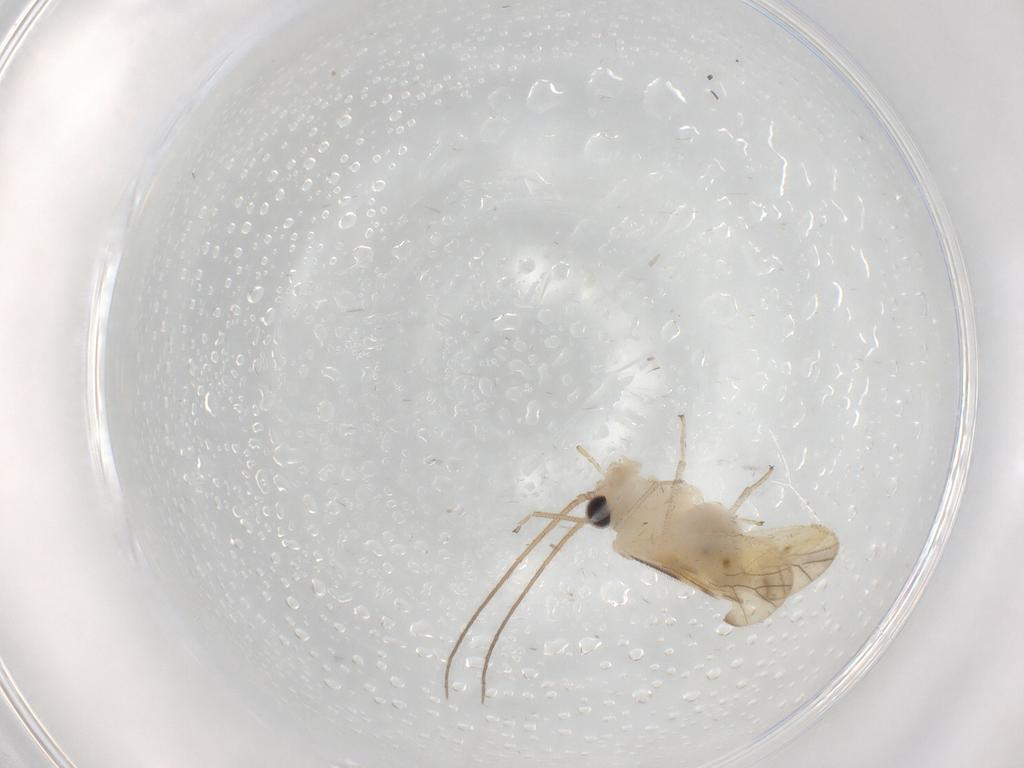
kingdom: Animalia
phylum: Arthropoda
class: Insecta
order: Psocodea
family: Caeciliusidae
